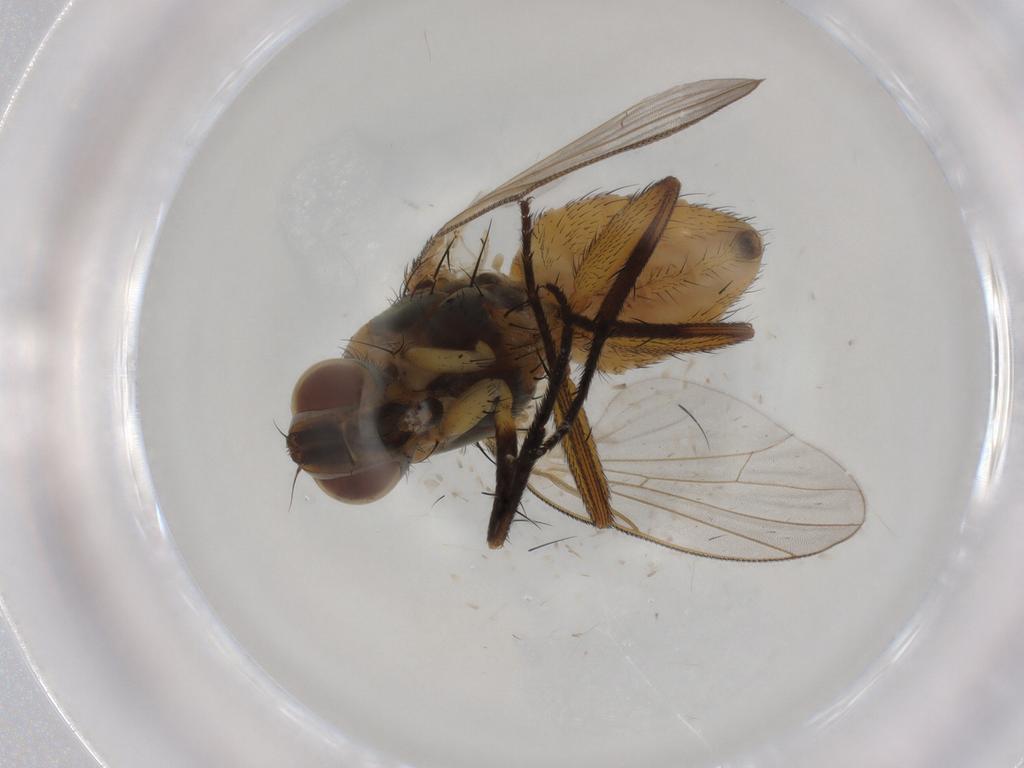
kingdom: Animalia
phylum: Arthropoda
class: Insecta
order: Diptera
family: Muscidae
